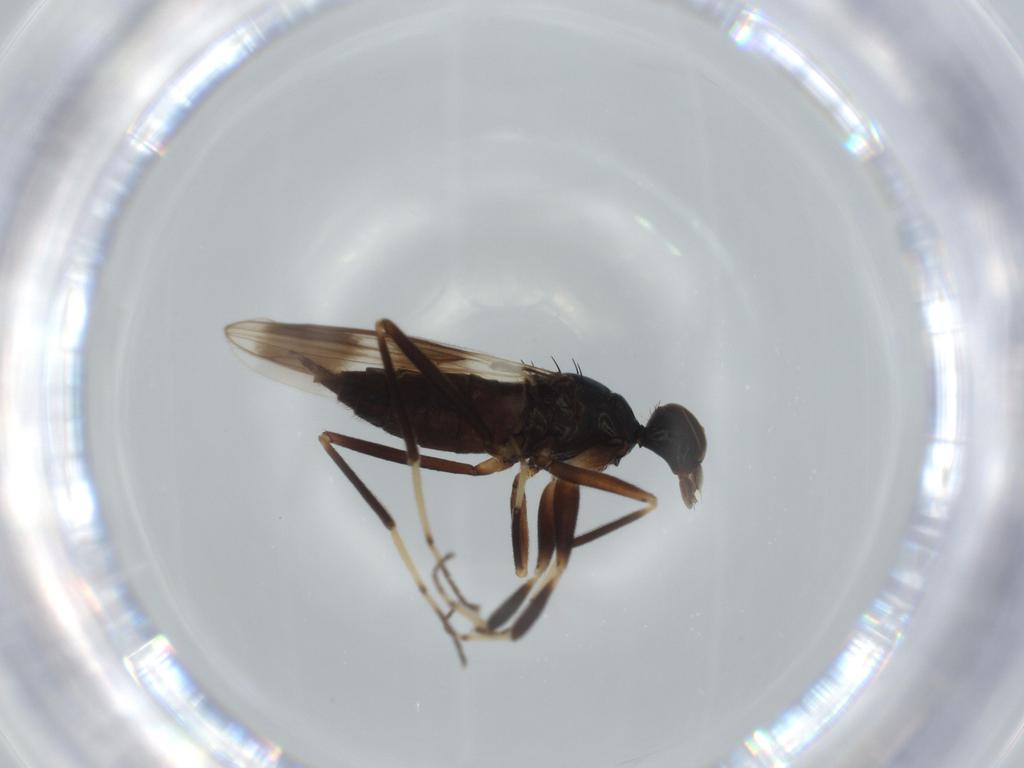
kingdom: Animalia
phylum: Arthropoda
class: Insecta
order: Diptera
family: Hybotidae
